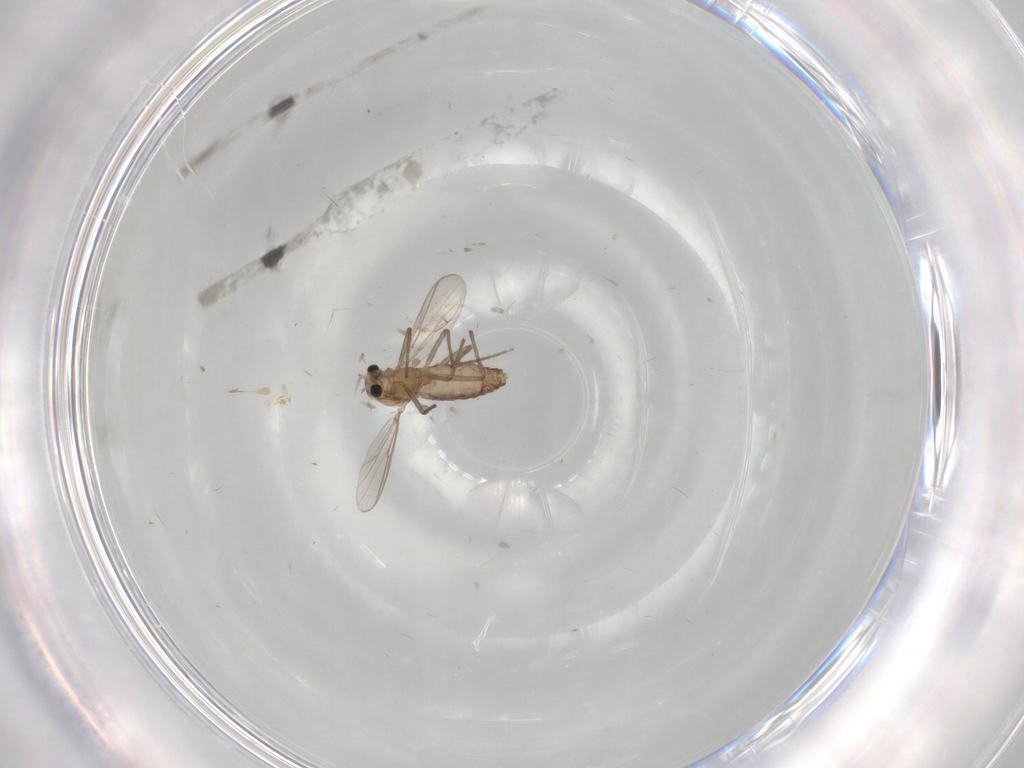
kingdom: Animalia
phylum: Arthropoda
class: Insecta
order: Diptera
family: Chironomidae
